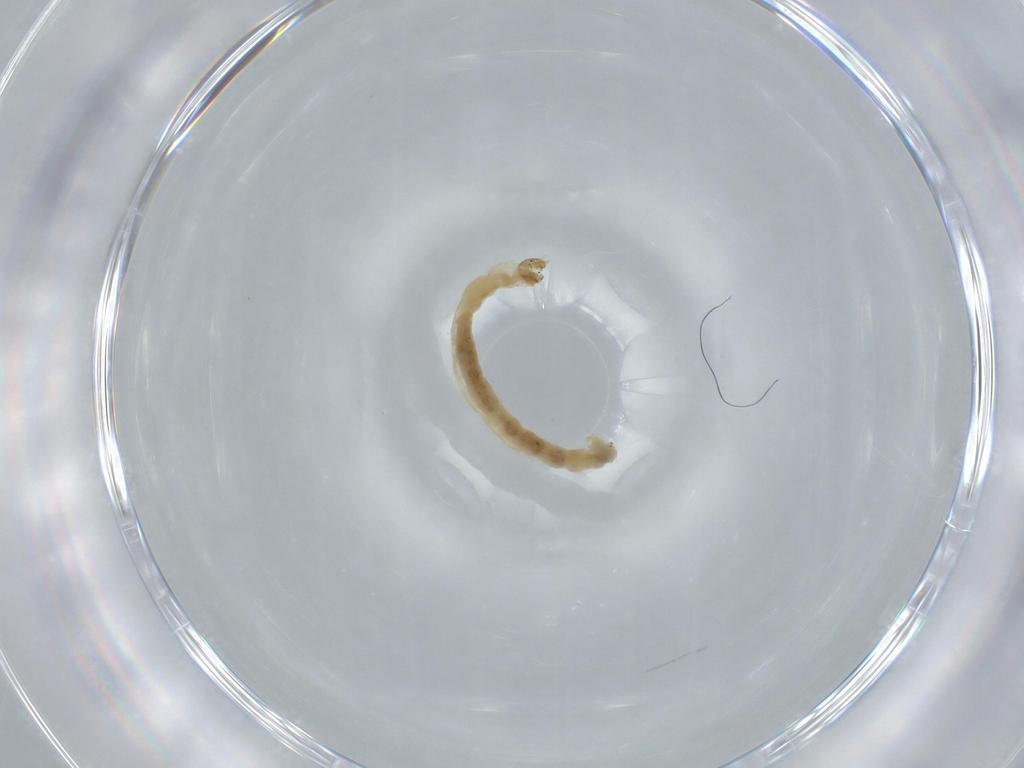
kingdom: Animalia
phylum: Arthropoda
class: Insecta
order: Diptera
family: Chironomidae
